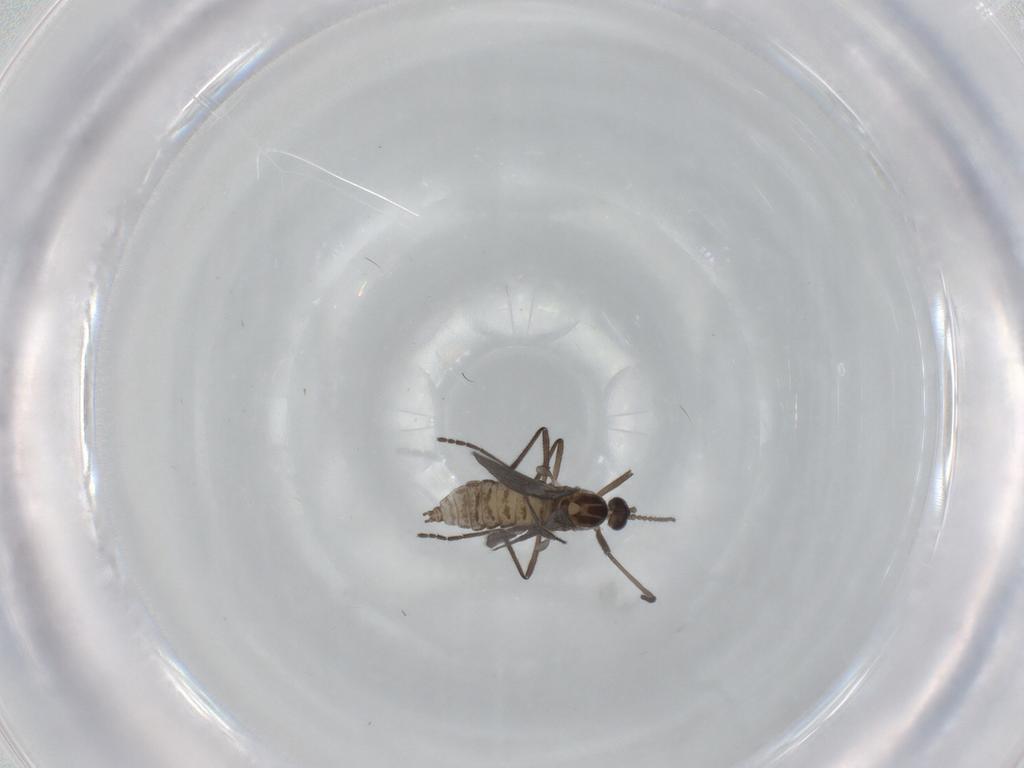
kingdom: Animalia
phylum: Arthropoda
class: Insecta
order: Diptera
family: Cecidomyiidae
